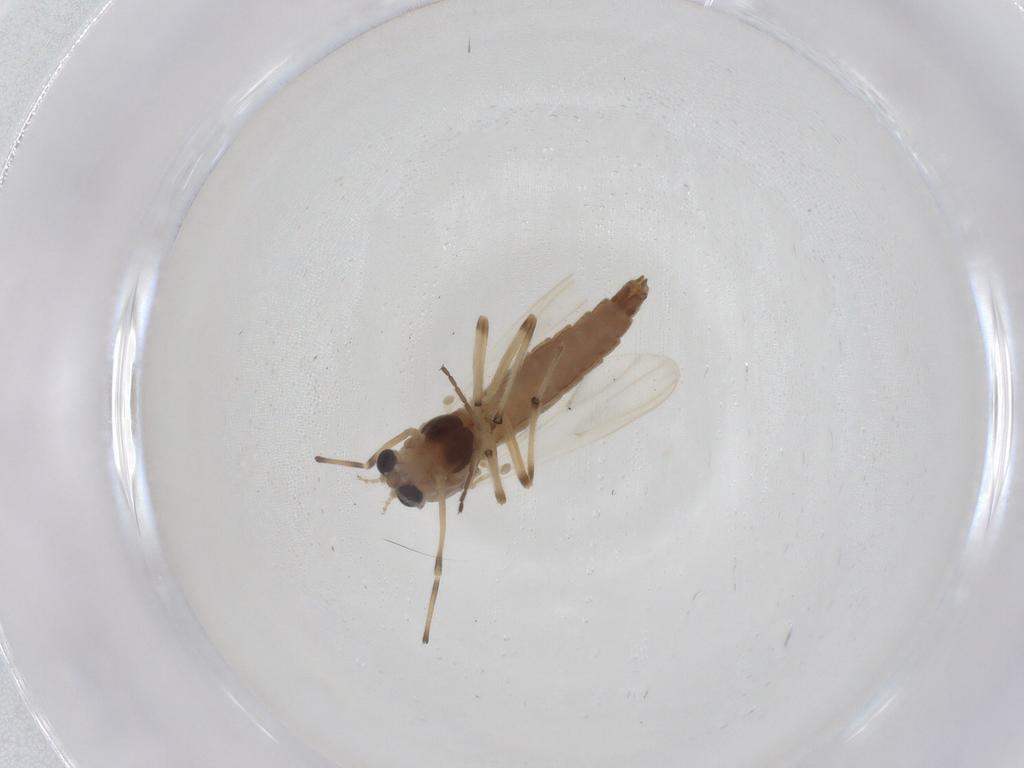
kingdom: Animalia
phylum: Arthropoda
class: Insecta
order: Diptera
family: Chironomidae
